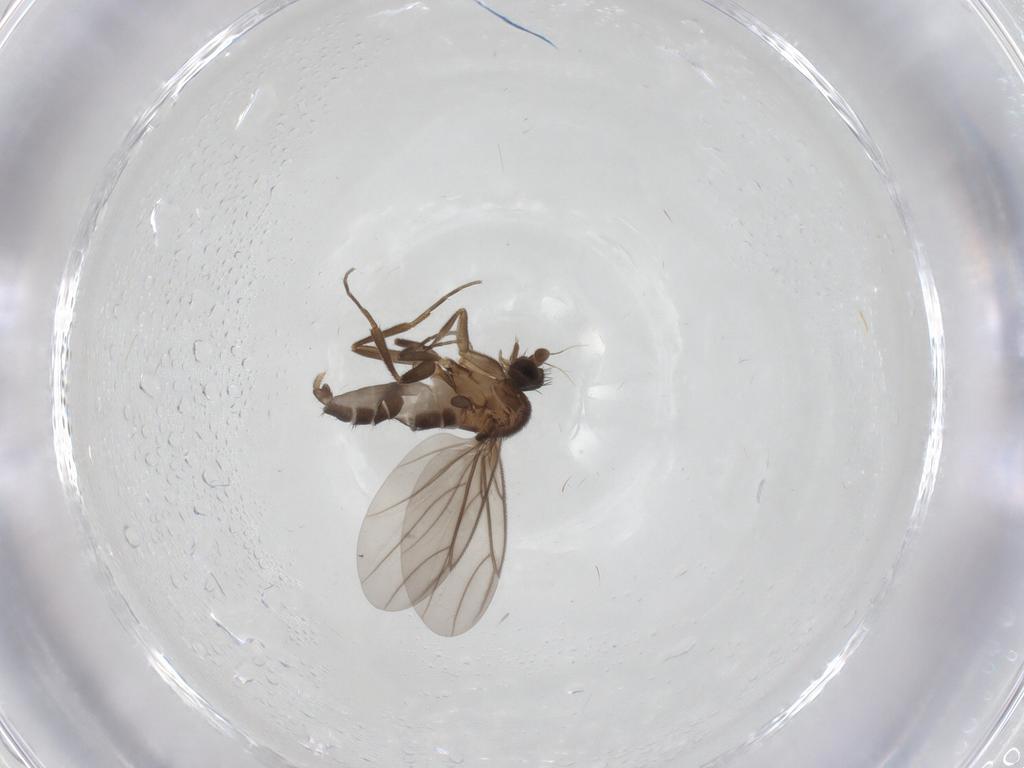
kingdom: Animalia
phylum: Arthropoda
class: Insecta
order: Diptera
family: Phoridae
